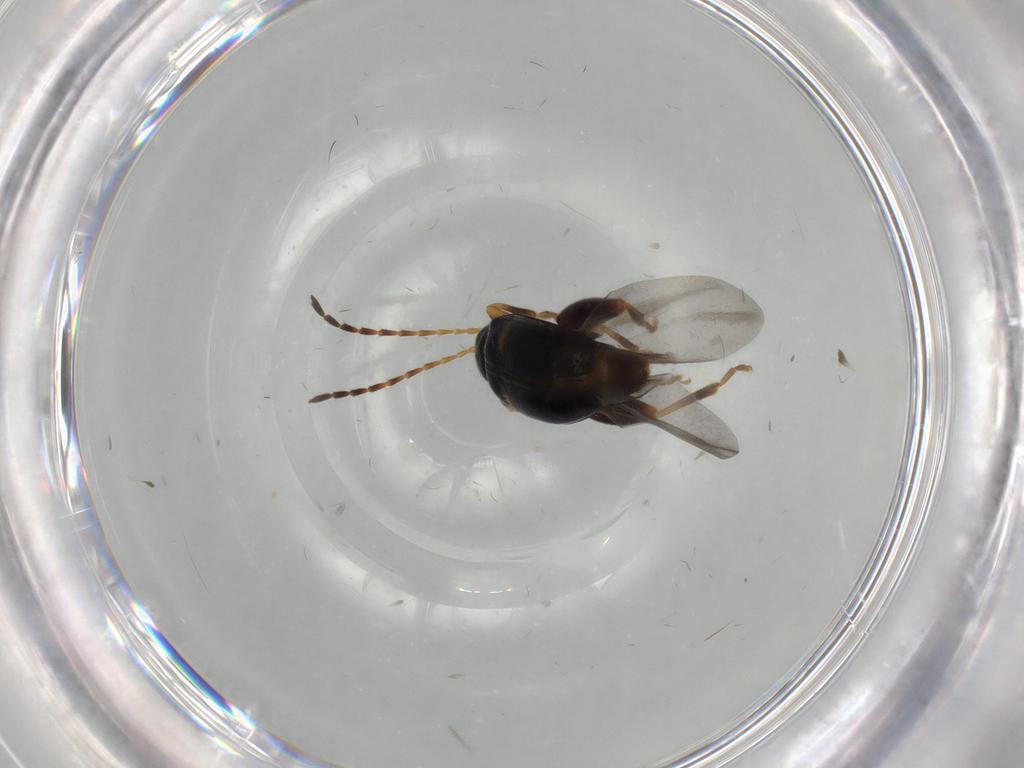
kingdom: Animalia
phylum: Arthropoda
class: Insecta
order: Coleoptera
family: Chrysomelidae
